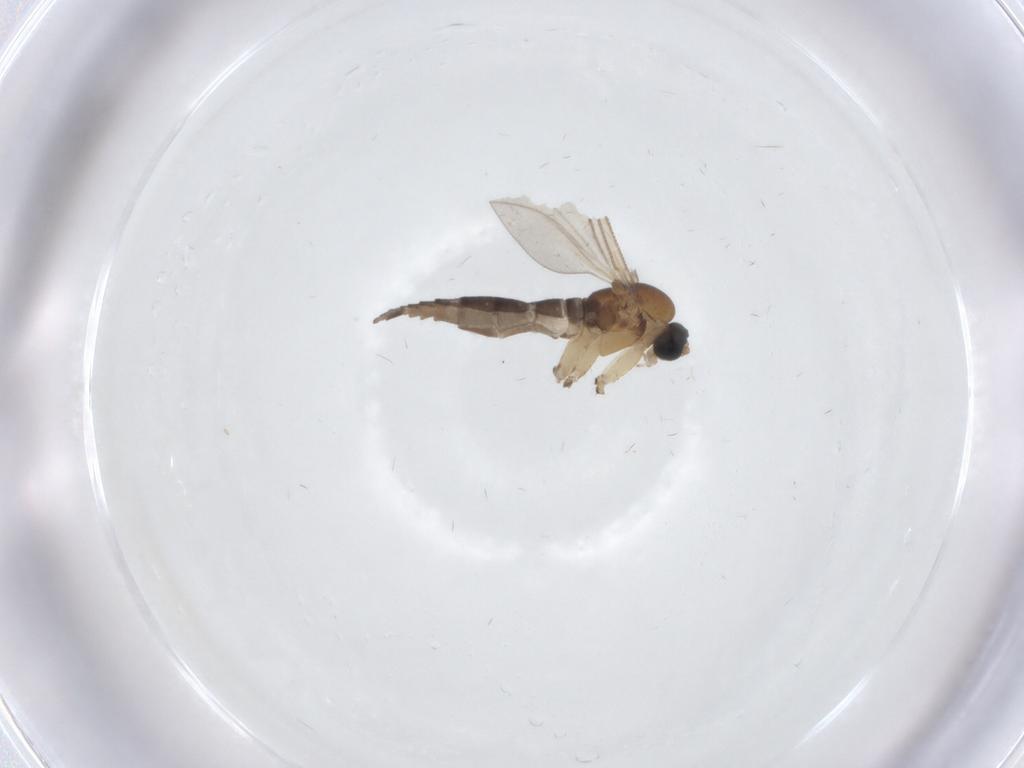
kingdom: Animalia
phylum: Arthropoda
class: Insecta
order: Diptera
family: Sciaridae
